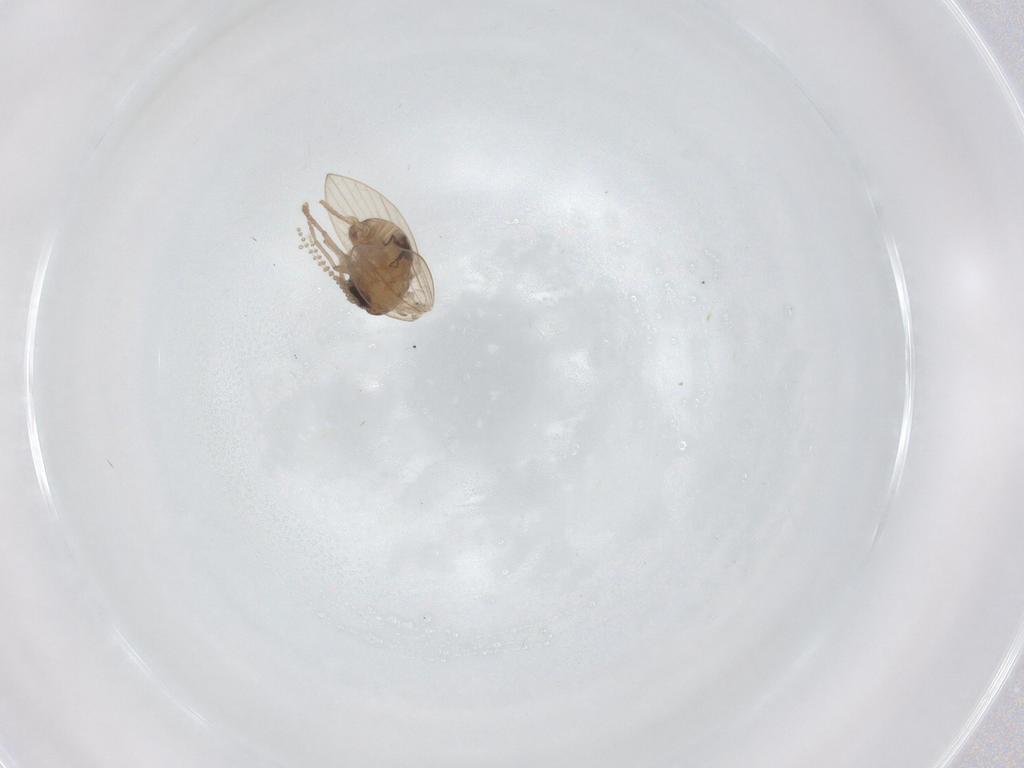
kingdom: Animalia
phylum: Arthropoda
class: Insecta
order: Diptera
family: Psychodidae
